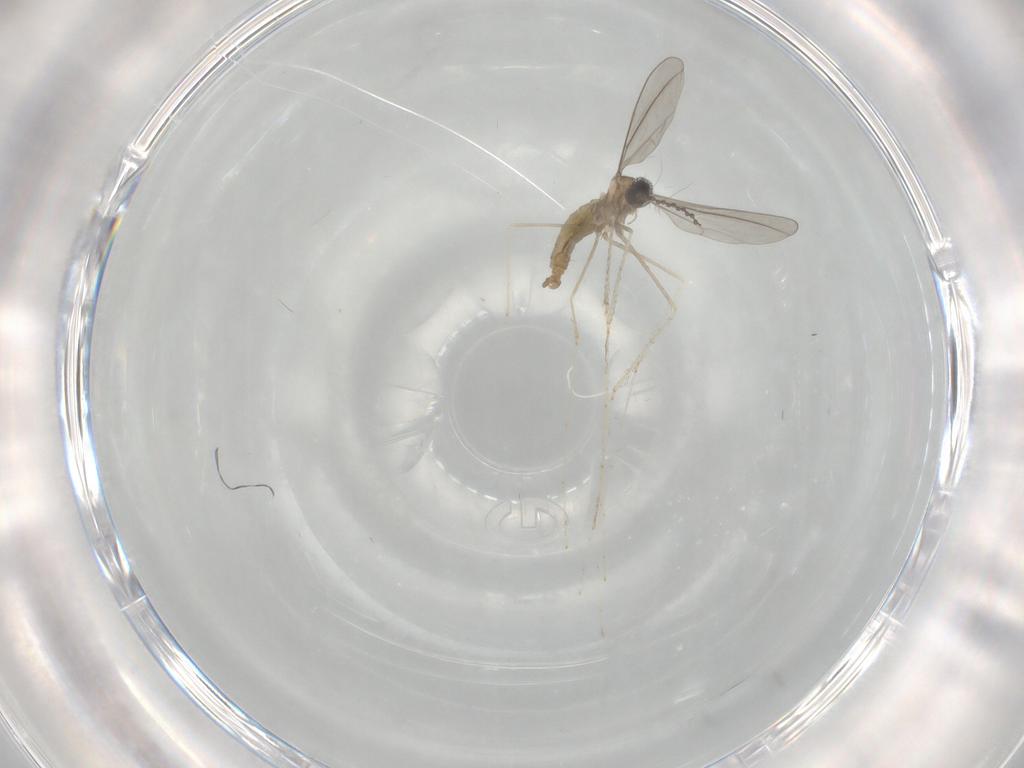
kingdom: Animalia
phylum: Arthropoda
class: Insecta
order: Diptera
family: Cecidomyiidae
